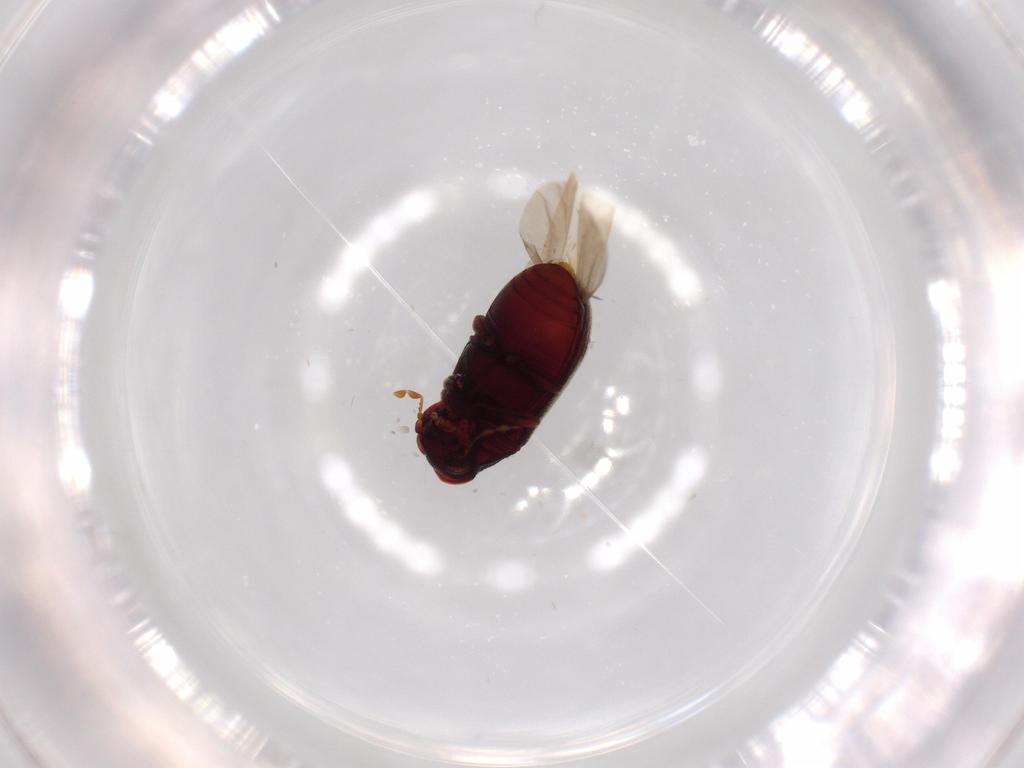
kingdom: Animalia
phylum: Arthropoda
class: Insecta
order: Coleoptera
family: Anobiidae
